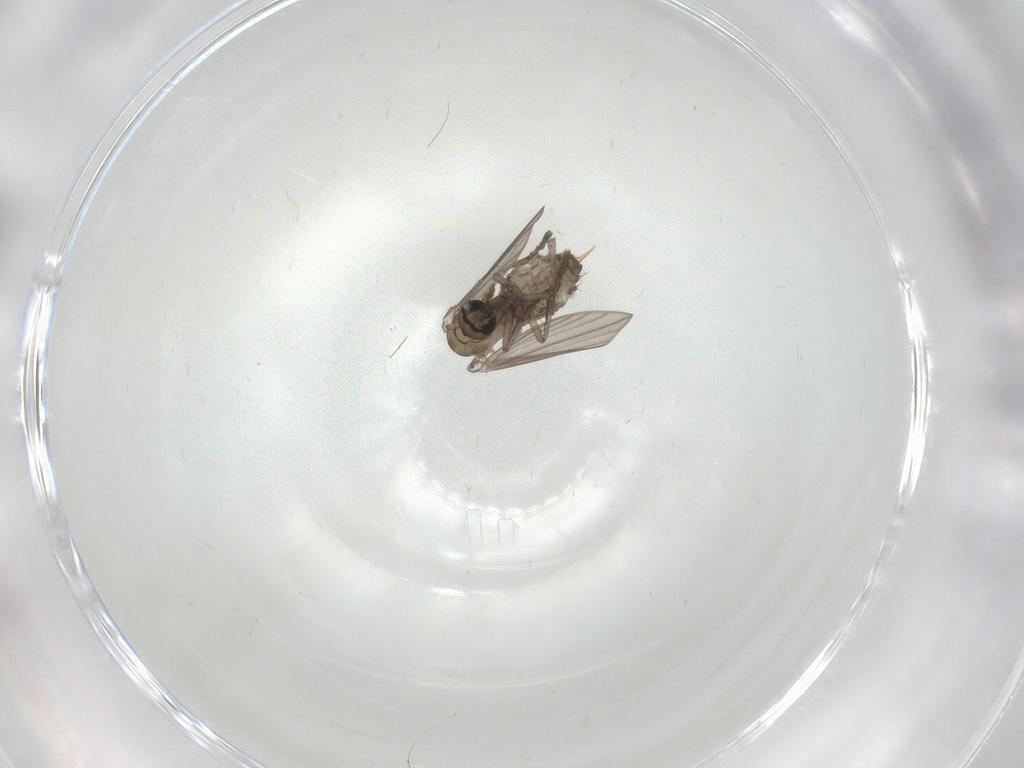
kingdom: Animalia
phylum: Arthropoda
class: Insecta
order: Diptera
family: Psychodidae
